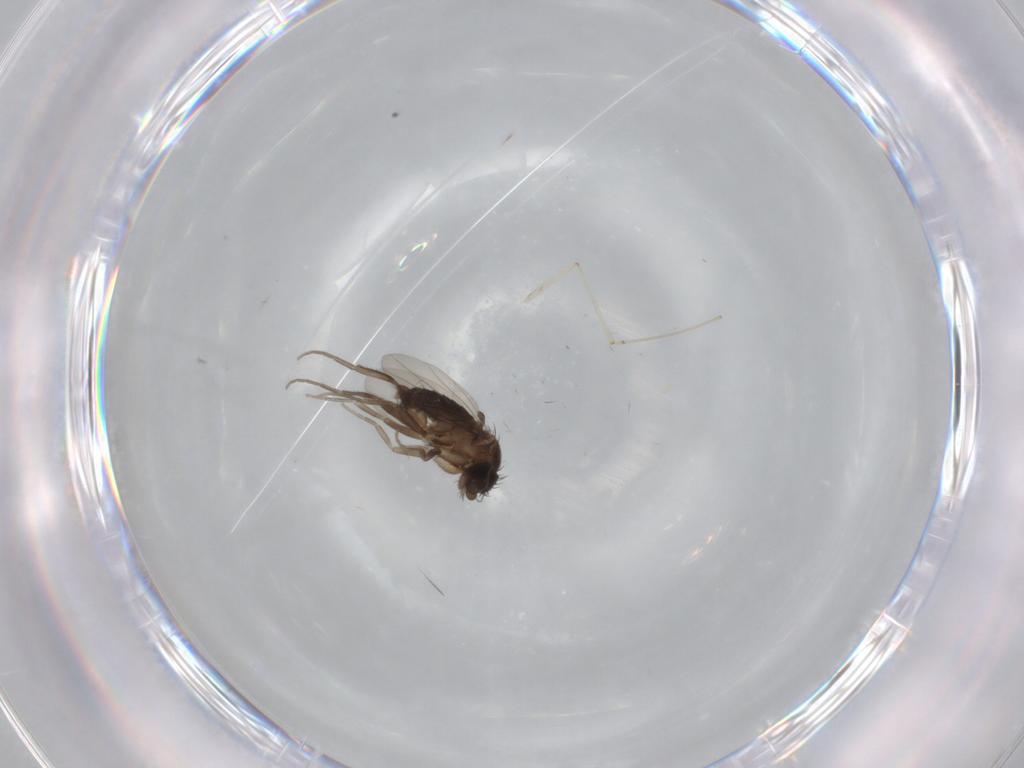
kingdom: Animalia
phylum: Arthropoda
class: Insecta
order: Diptera
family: Phoridae
